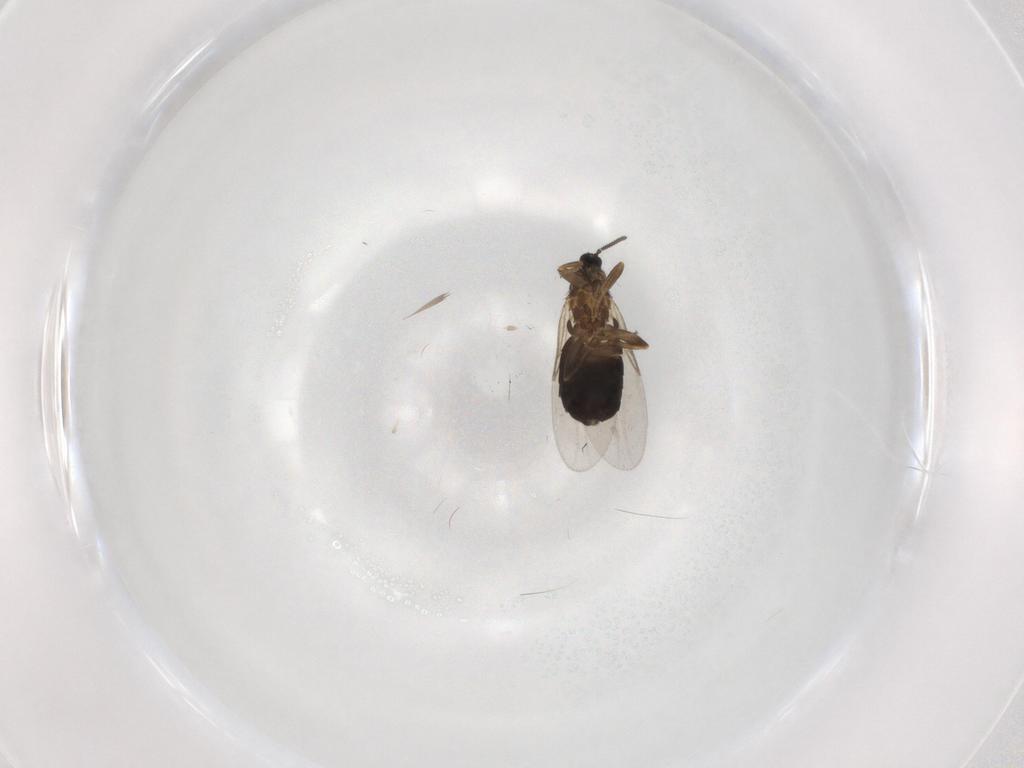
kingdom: Animalia
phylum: Arthropoda
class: Insecta
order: Diptera
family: Scatopsidae
